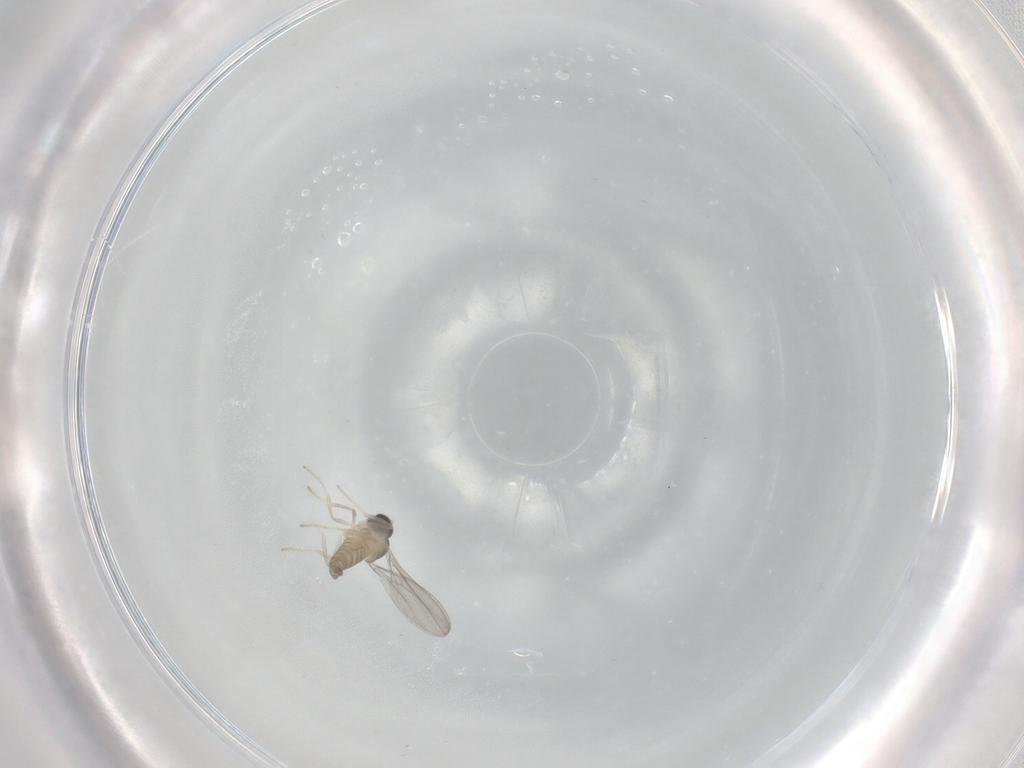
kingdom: Animalia
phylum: Arthropoda
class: Insecta
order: Diptera
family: Cecidomyiidae
